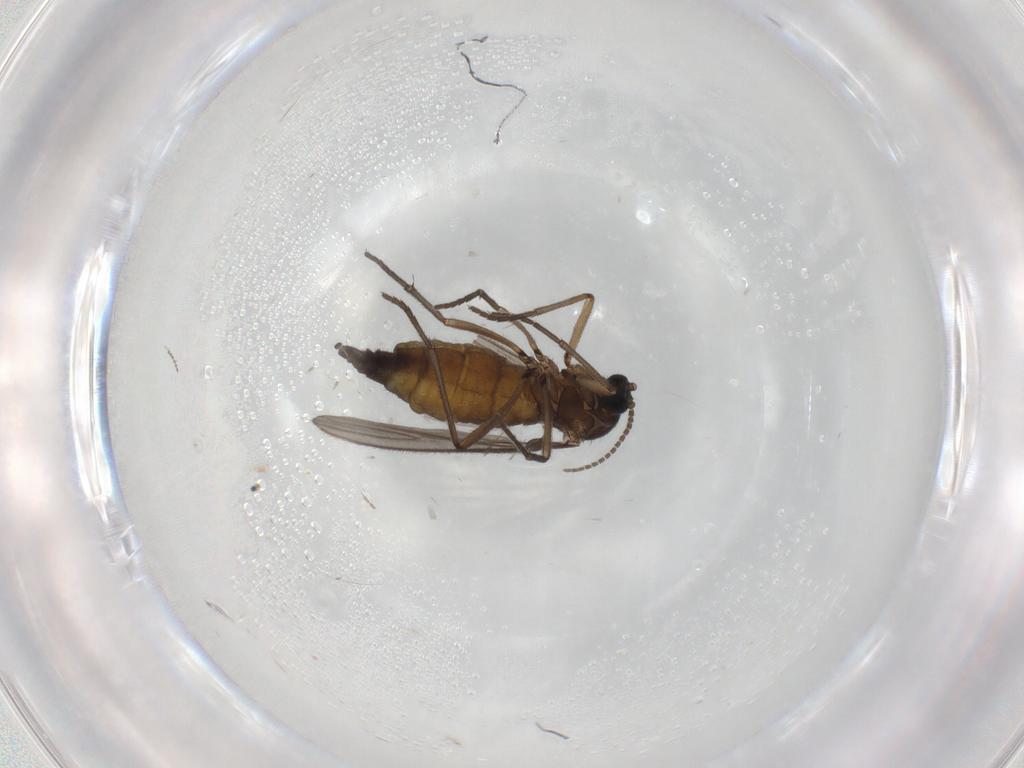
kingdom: Animalia
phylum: Arthropoda
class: Insecta
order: Diptera
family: Sciaridae
